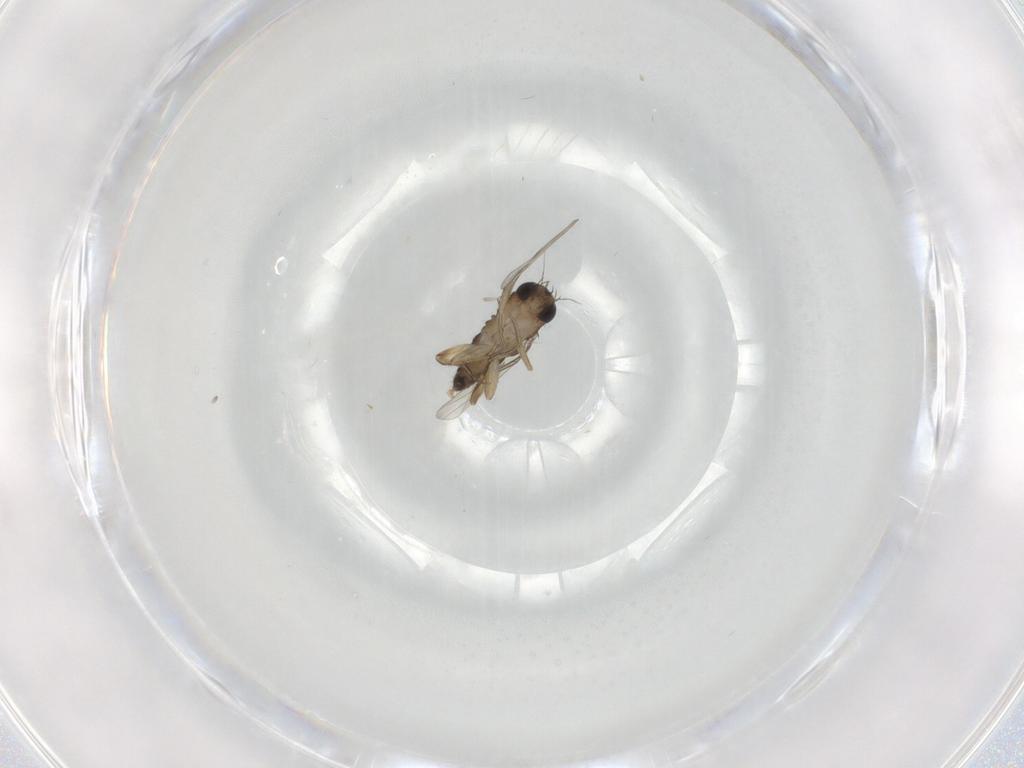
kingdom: Animalia
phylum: Arthropoda
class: Insecta
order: Diptera
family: Phoridae
